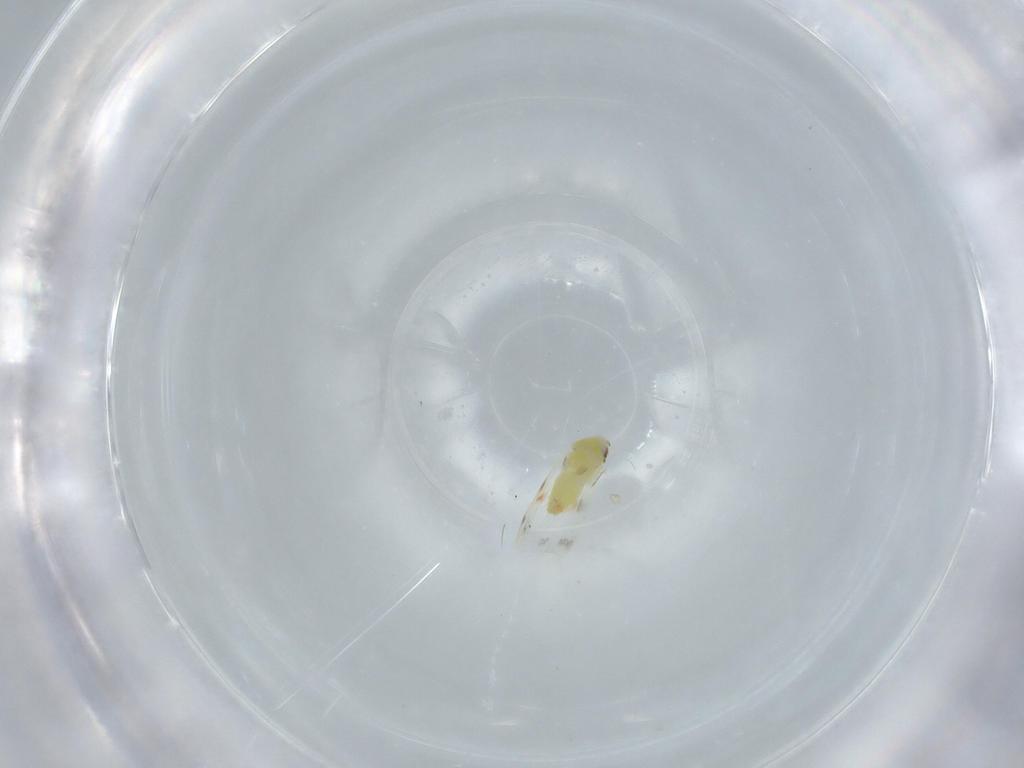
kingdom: Animalia
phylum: Arthropoda
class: Insecta
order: Hemiptera
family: Aleyrodidae
